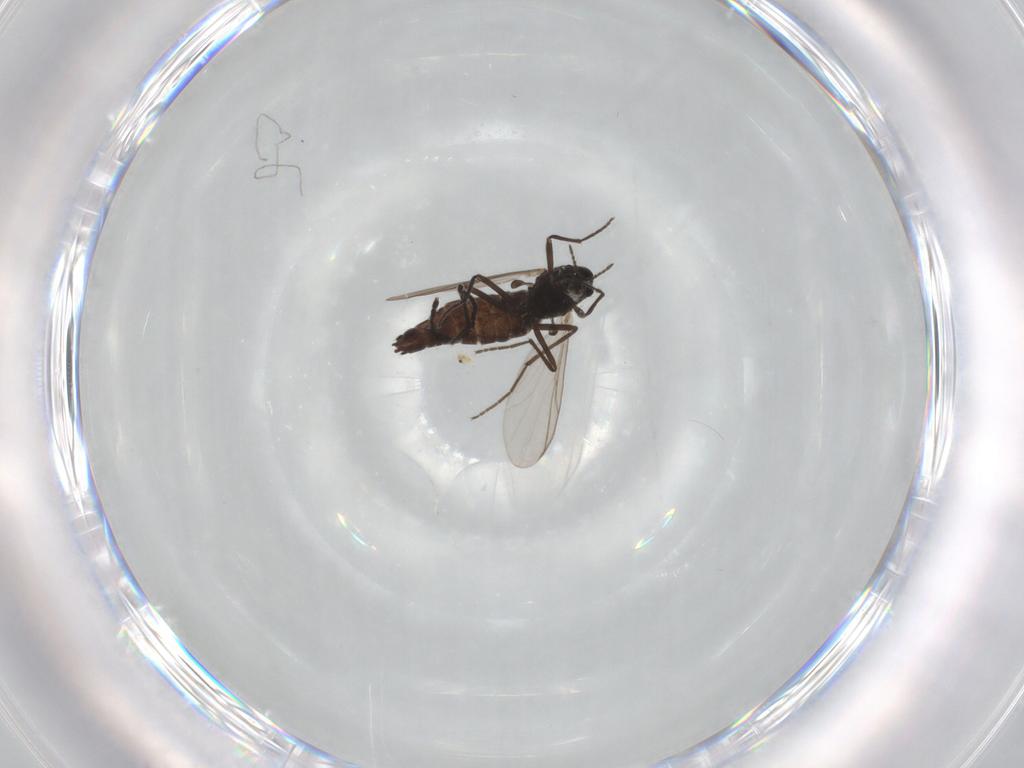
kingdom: Animalia
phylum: Arthropoda
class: Insecta
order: Diptera
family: Chironomidae
